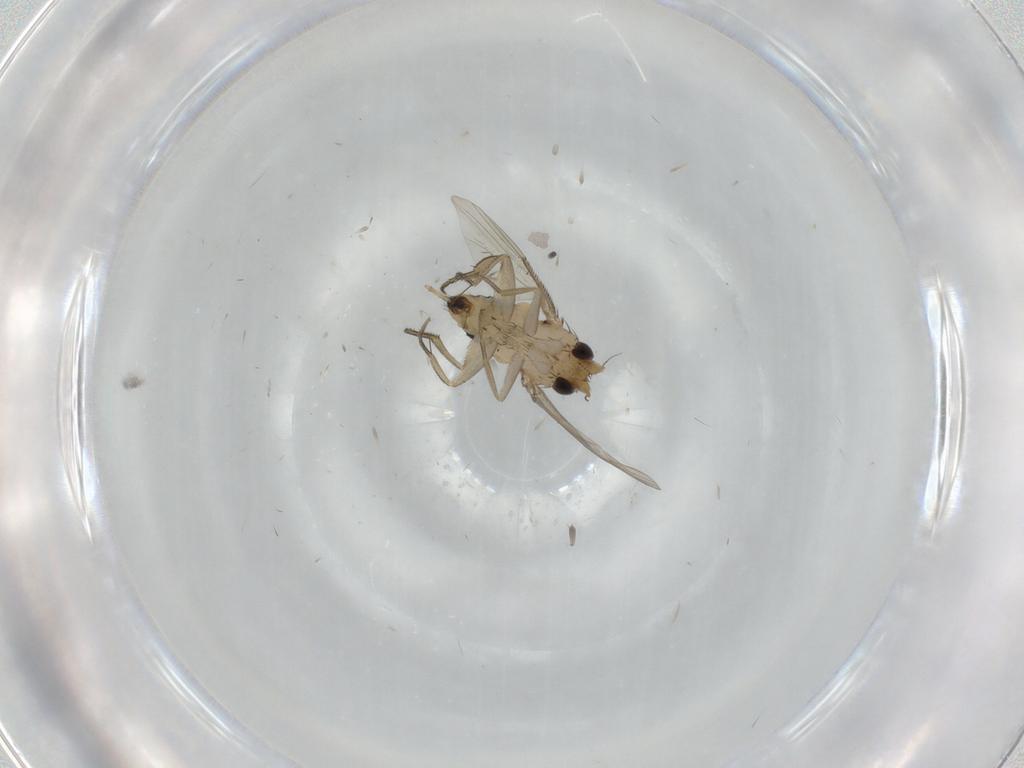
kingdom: Animalia
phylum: Arthropoda
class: Insecta
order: Diptera
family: Phoridae
